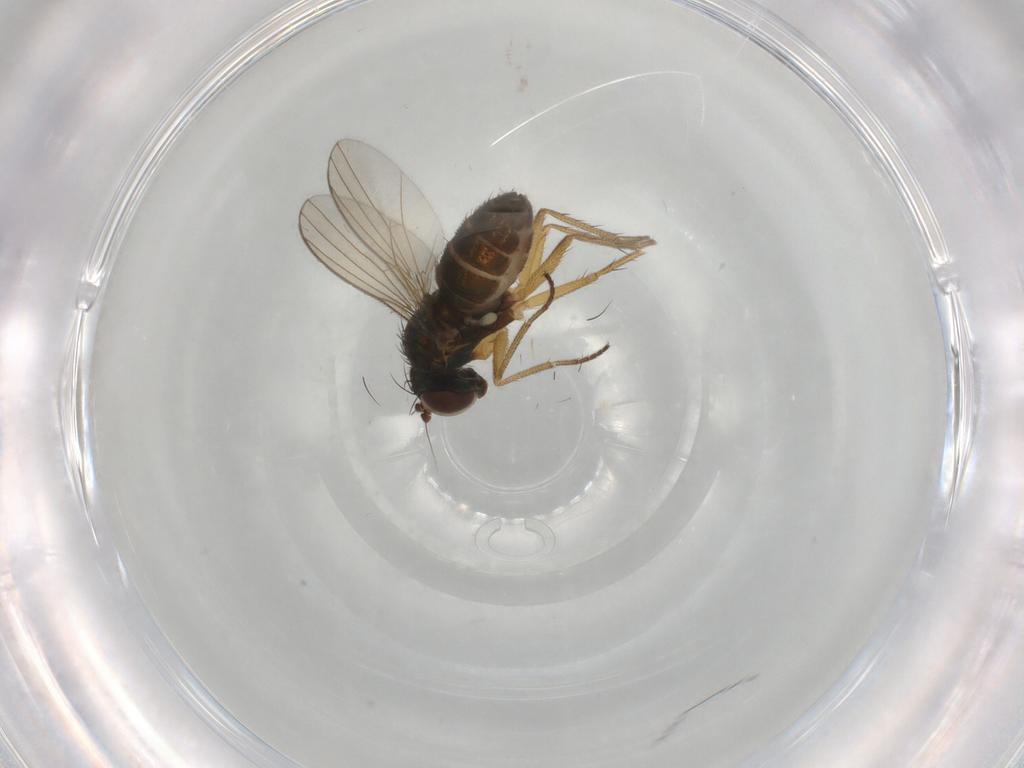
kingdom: Animalia
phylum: Arthropoda
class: Insecta
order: Diptera
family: Dolichopodidae
